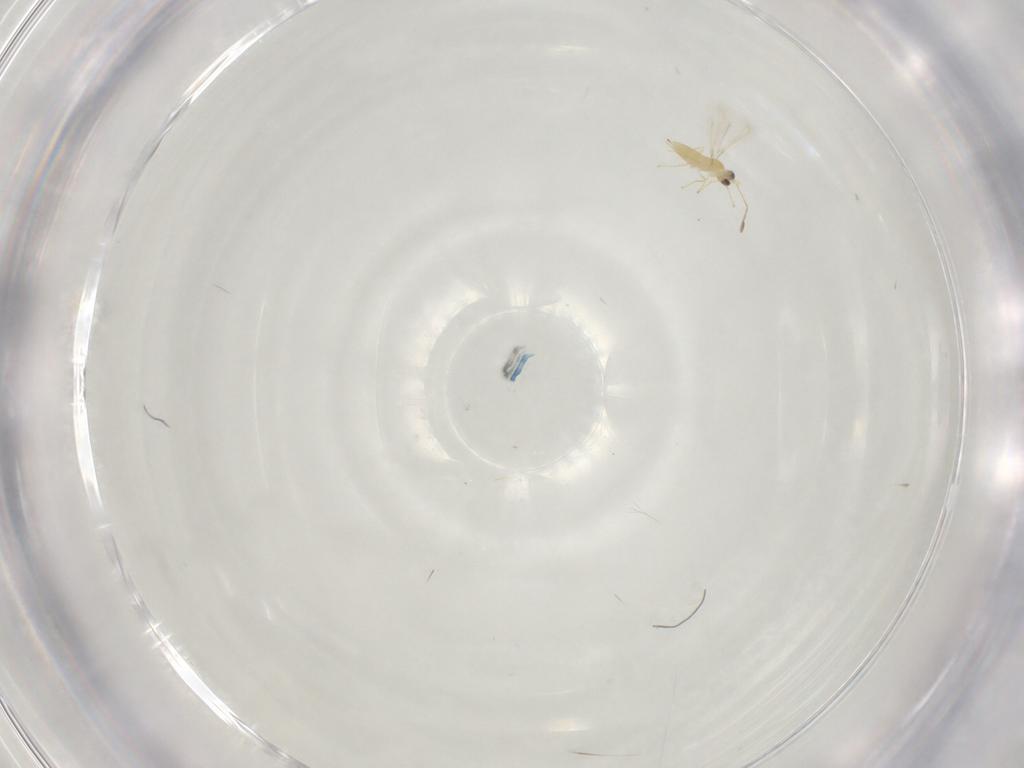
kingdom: Animalia
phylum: Arthropoda
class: Insecta
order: Hymenoptera
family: Mymaridae
